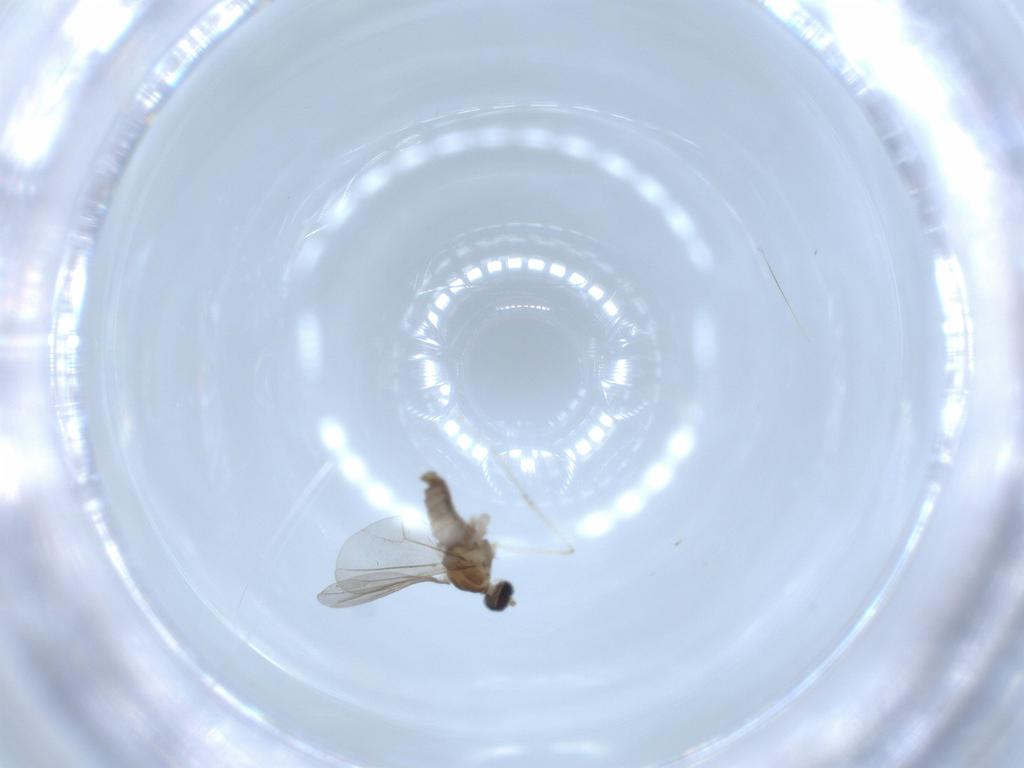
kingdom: Animalia
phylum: Arthropoda
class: Insecta
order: Diptera
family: Cecidomyiidae
